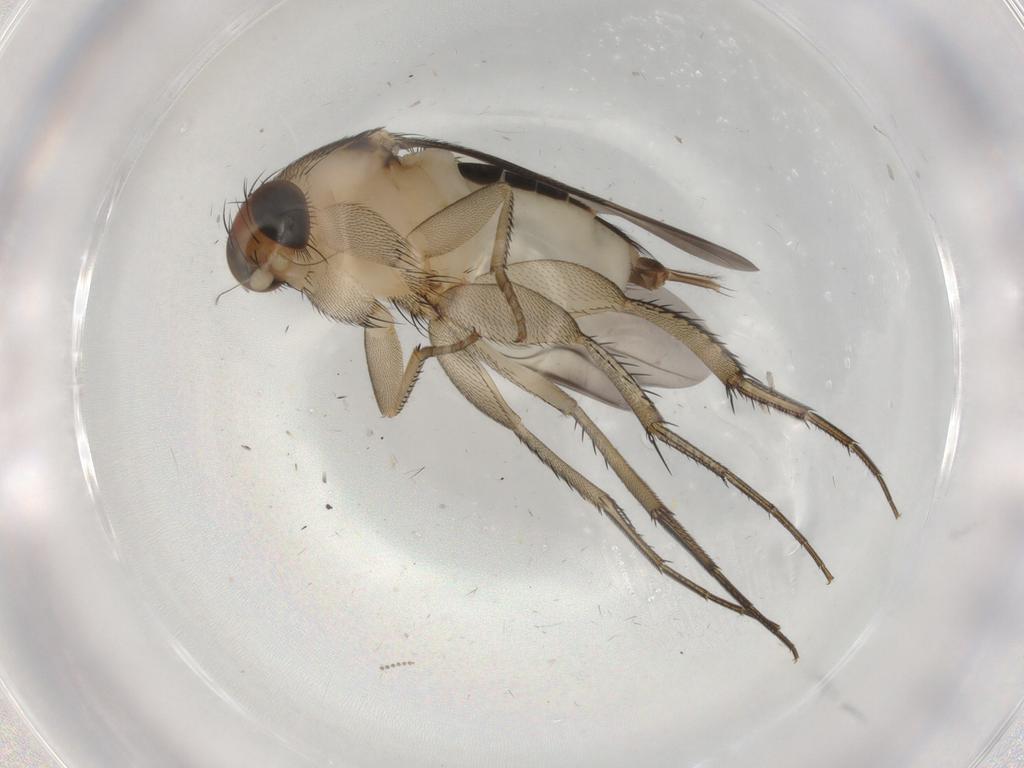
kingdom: Animalia
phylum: Arthropoda
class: Insecta
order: Diptera
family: Phoridae
